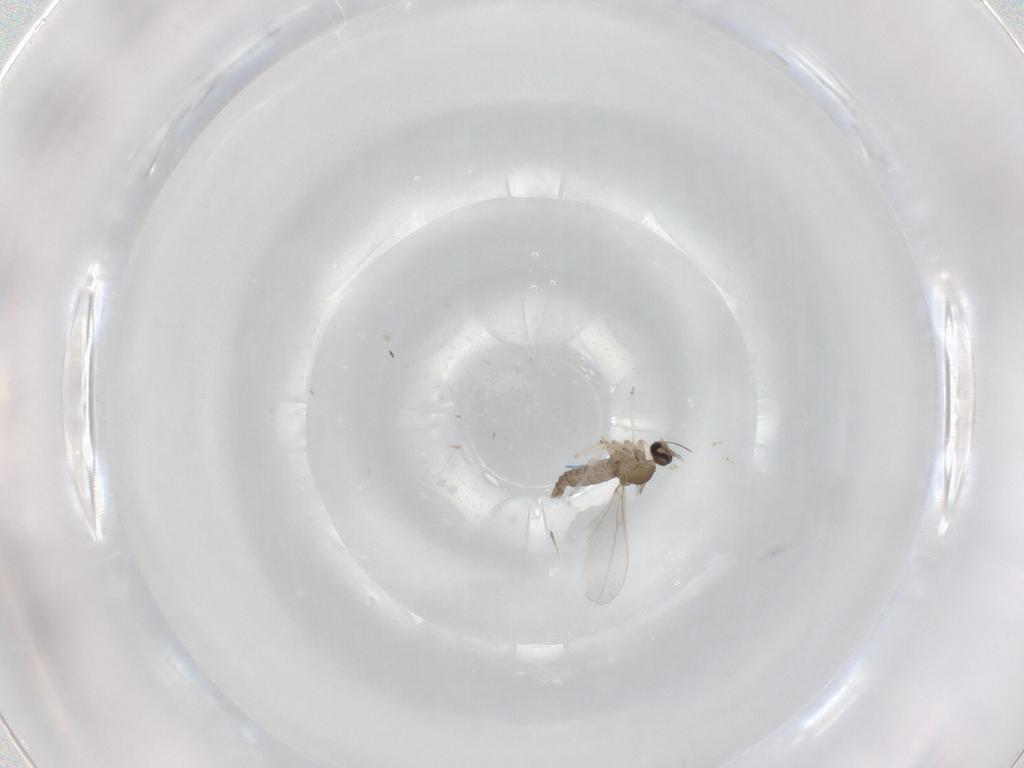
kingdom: Animalia
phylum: Arthropoda
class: Insecta
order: Diptera
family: Cecidomyiidae
